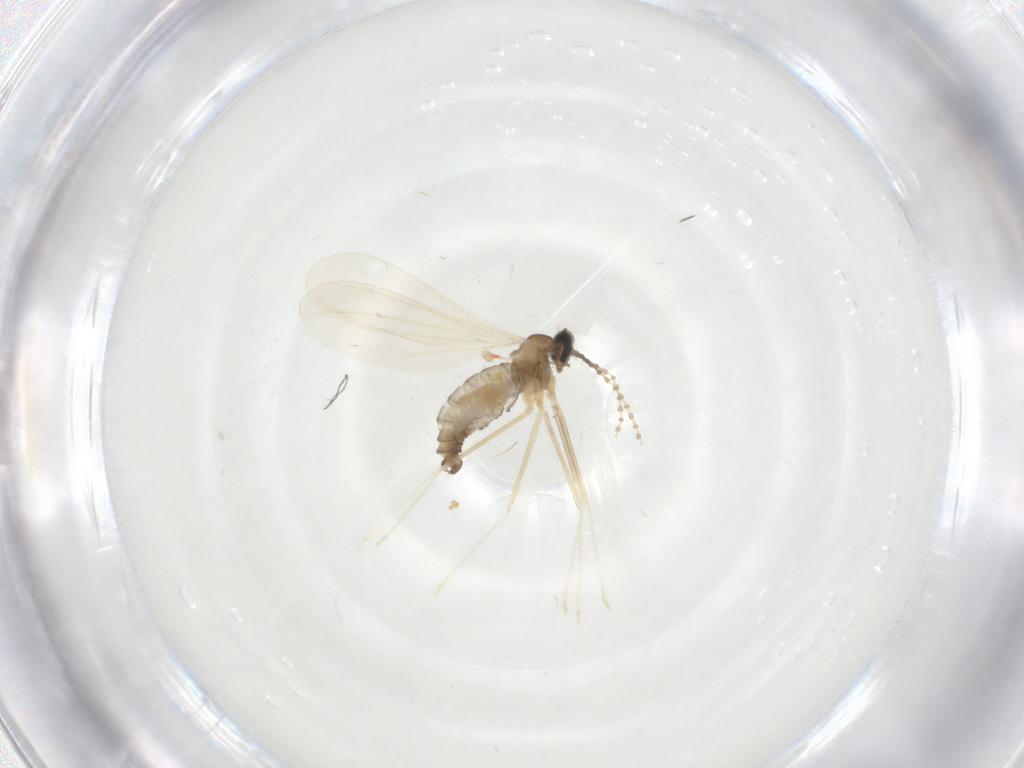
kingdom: Animalia
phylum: Arthropoda
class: Insecta
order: Diptera
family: Cecidomyiidae
